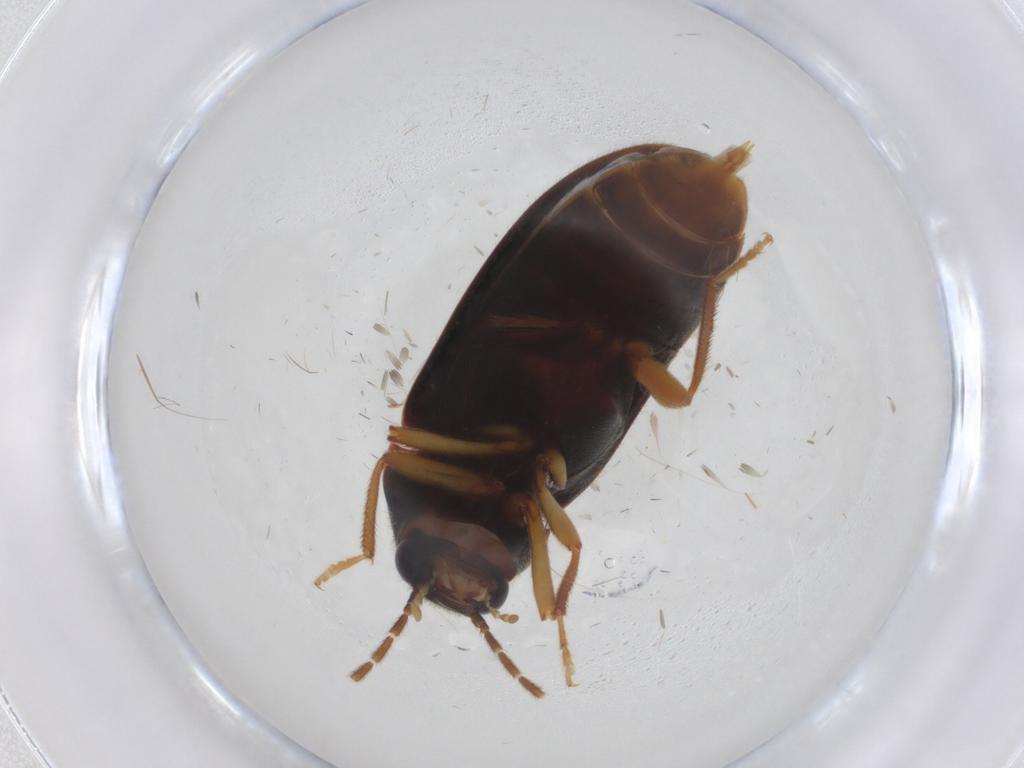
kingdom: Animalia
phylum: Arthropoda
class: Insecta
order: Coleoptera
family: Ptilodactylidae
